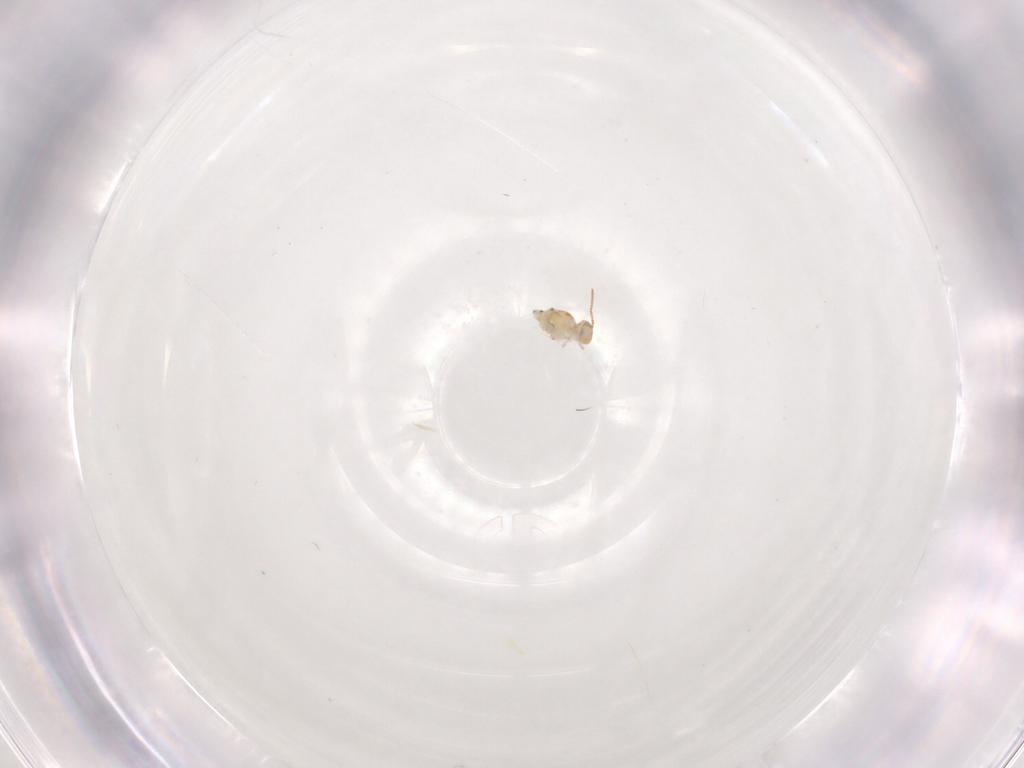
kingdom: Animalia
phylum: Arthropoda
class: Collembola
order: Symphypleona
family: Bourletiellidae
